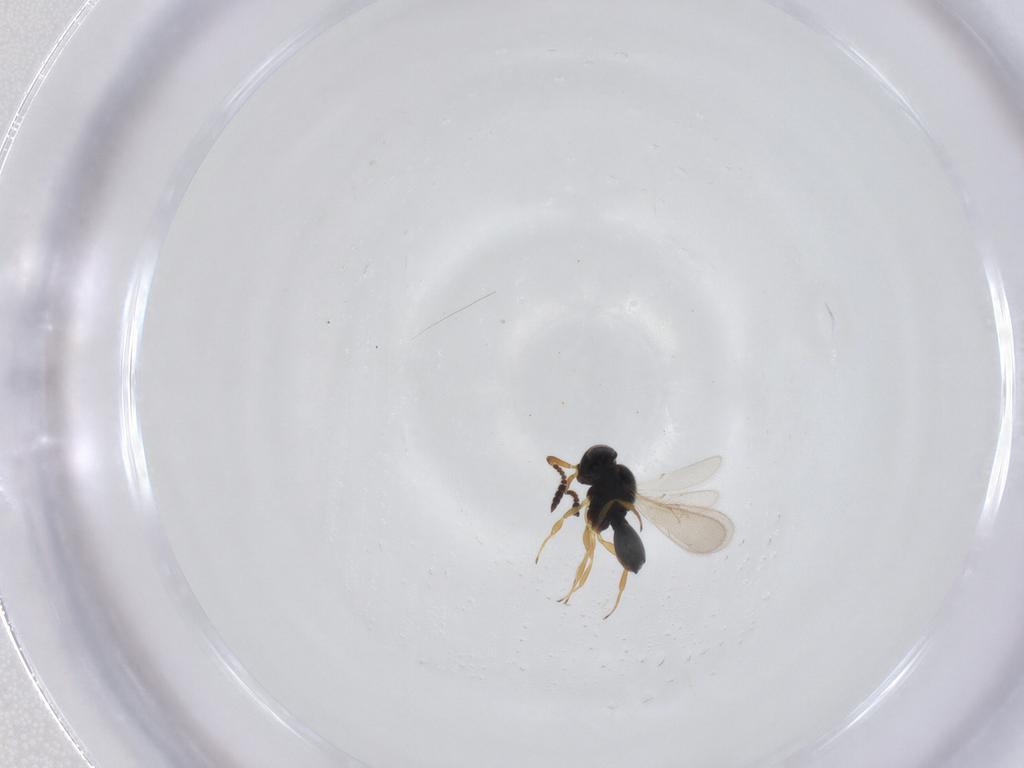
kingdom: Animalia
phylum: Arthropoda
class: Insecta
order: Hymenoptera
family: Scelionidae
